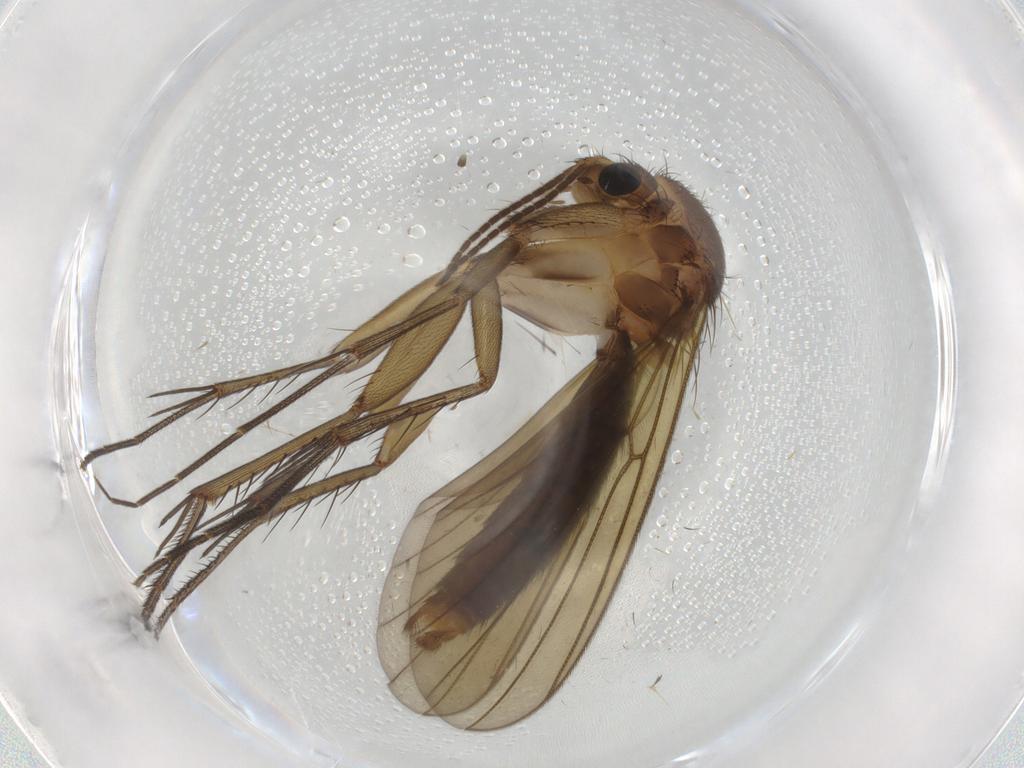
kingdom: Animalia
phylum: Arthropoda
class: Insecta
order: Diptera
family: Mycetophilidae
